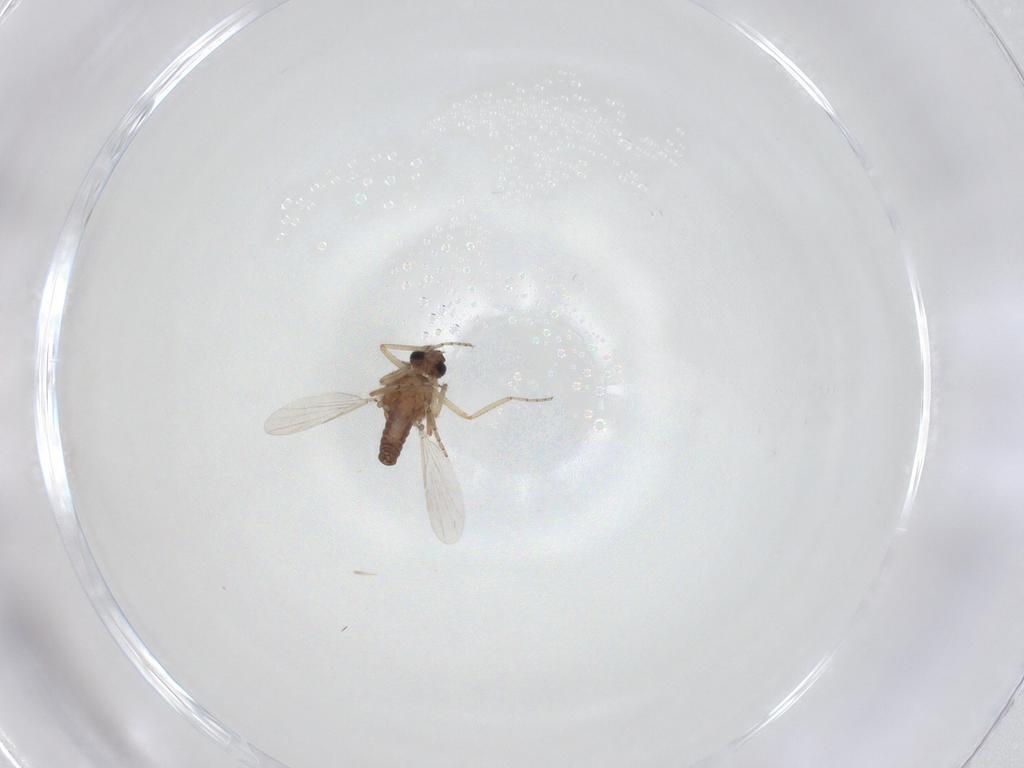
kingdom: Animalia
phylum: Arthropoda
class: Insecta
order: Diptera
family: Ceratopogonidae
